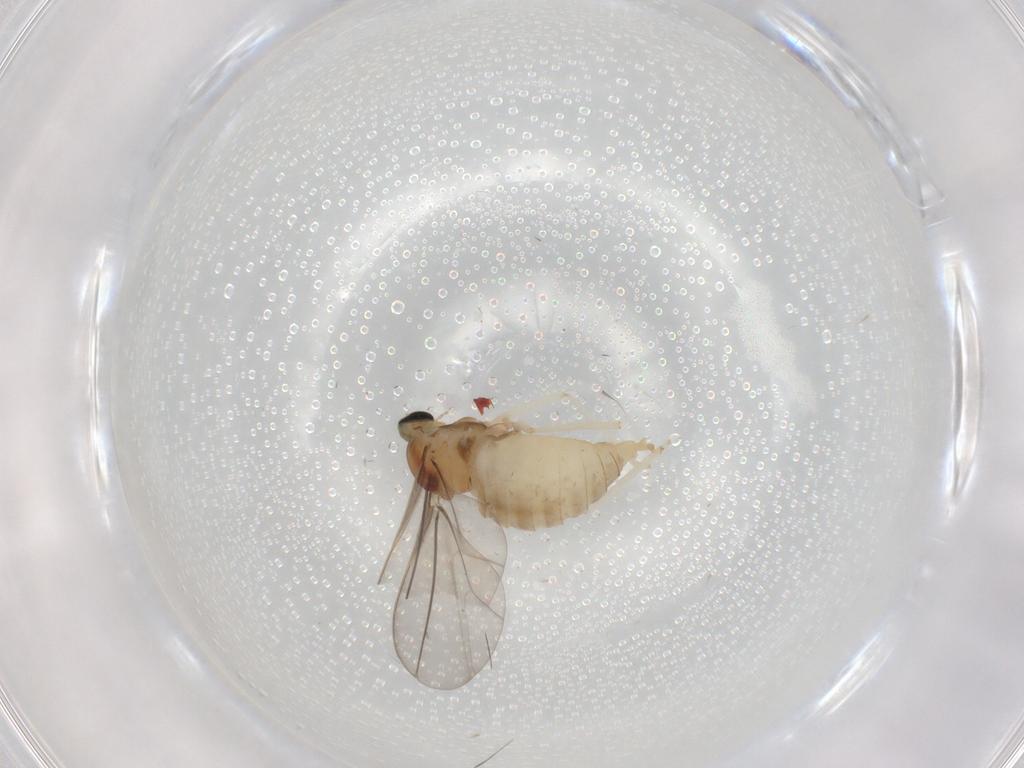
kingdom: Animalia
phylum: Arthropoda
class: Insecta
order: Diptera
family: Cecidomyiidae
